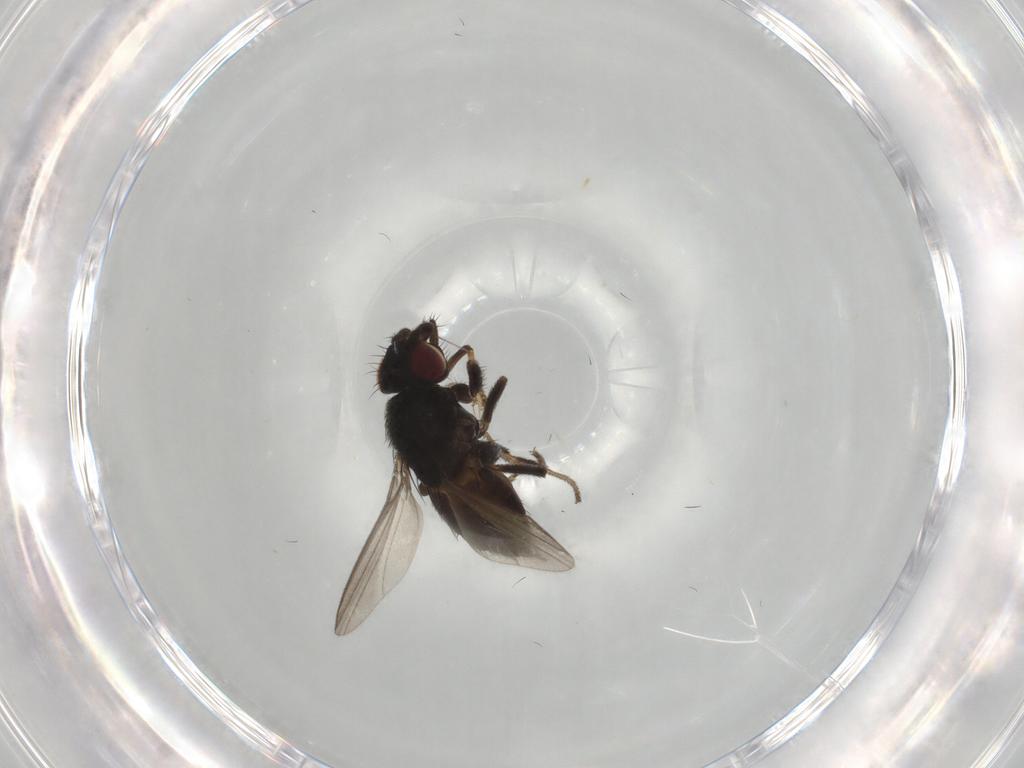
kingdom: Animalia
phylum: Arthropoda
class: Insecta
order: Diptera
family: Milichiidae
